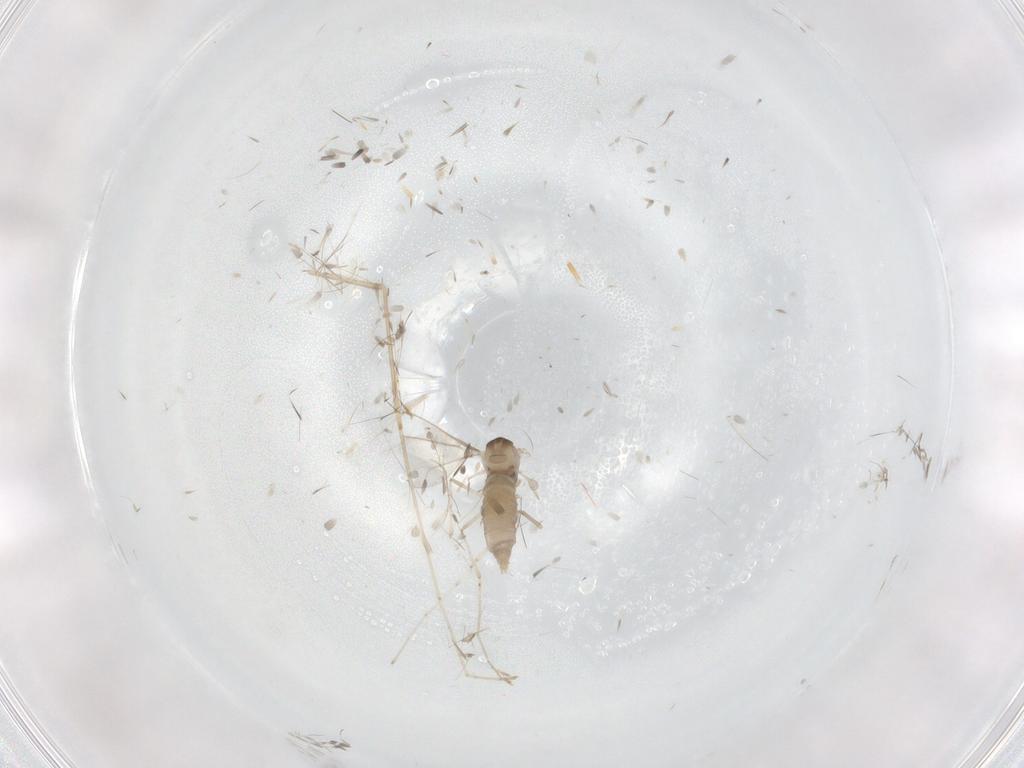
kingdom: Animalia
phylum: Arthropoda
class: Insecta
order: Diptera
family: Cecidomyiidae
